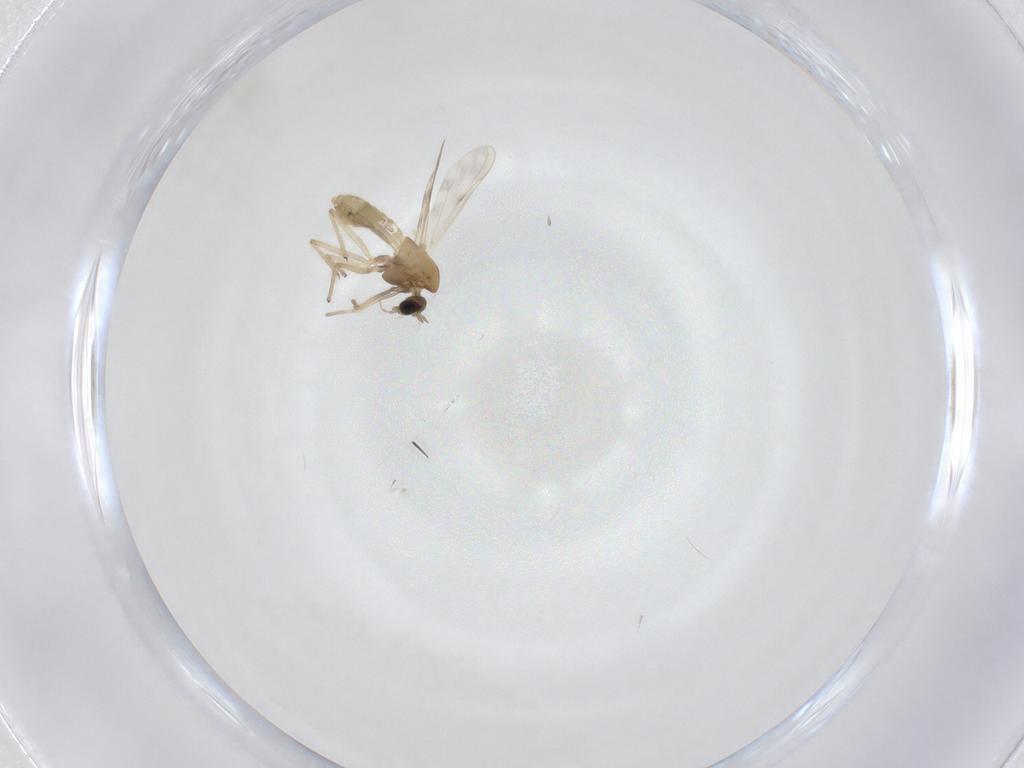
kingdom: Animalia
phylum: Arthropoda
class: Insecta
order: Diptera
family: Chironomidae
